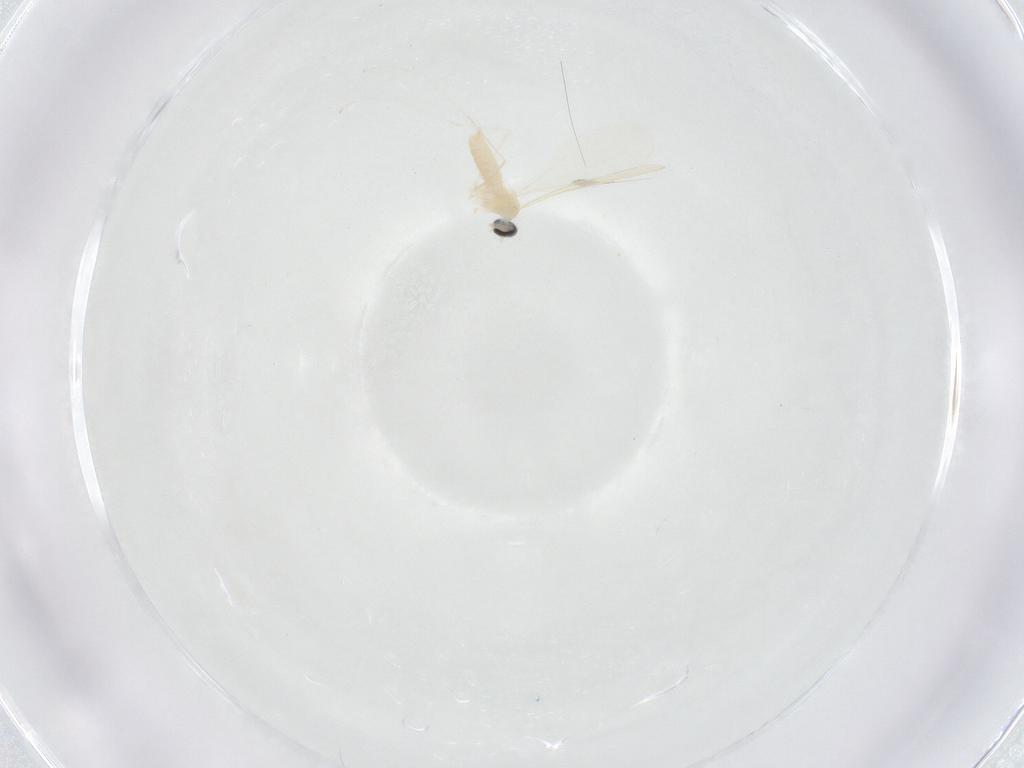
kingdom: Animalia
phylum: Arthropoda
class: Insecta
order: Diptera
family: Cecidomyiidae
